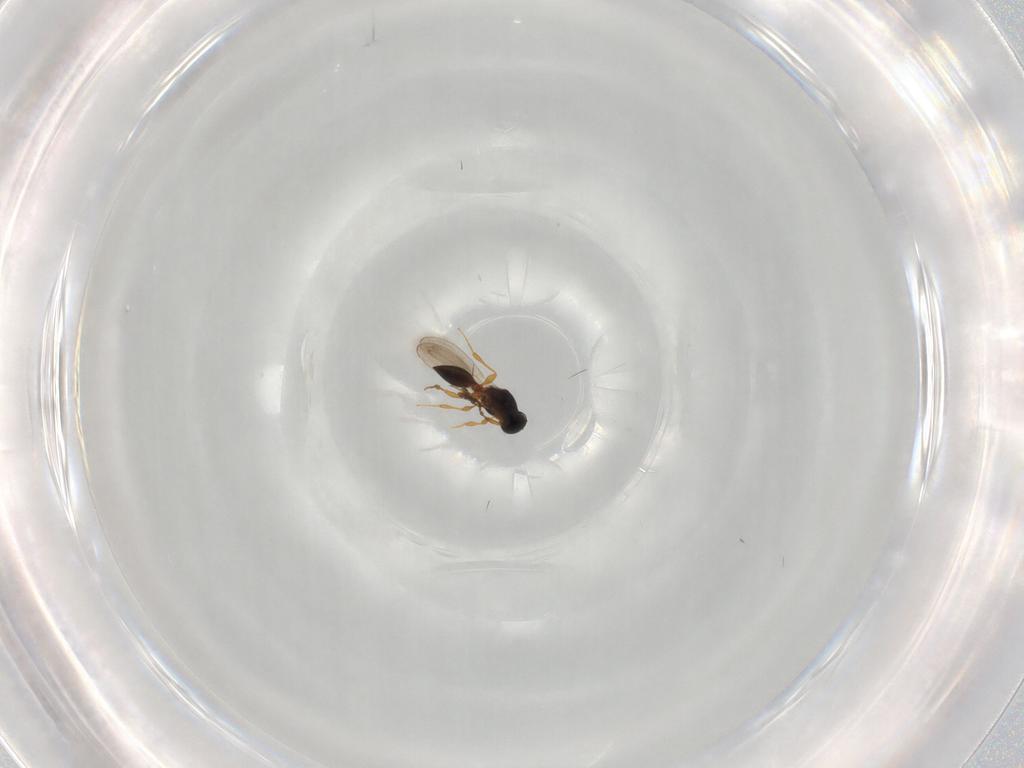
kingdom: Animalia
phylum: Arthropoda
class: Insecta
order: Hymenoptera
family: Platygastridae
